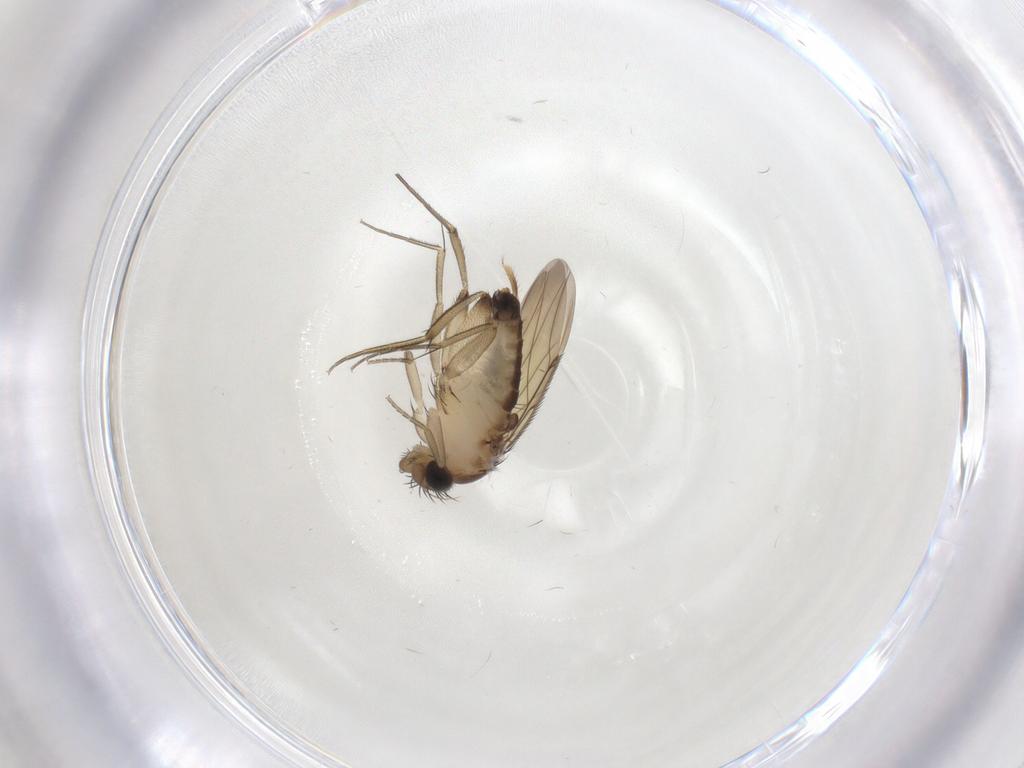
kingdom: Animalia
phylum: Arthropoda
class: Insecta
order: Diptera
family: Phoridae
